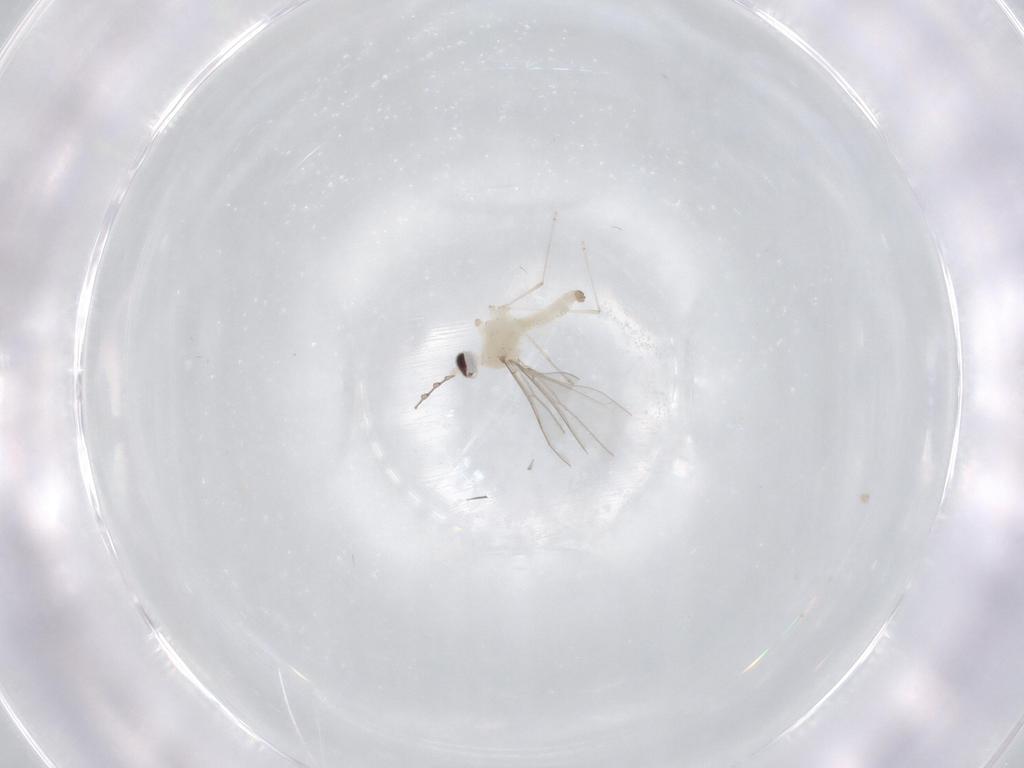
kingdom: Animalia
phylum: Arthropoda
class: Insecta
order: Diptera
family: Cecidomyiidae
